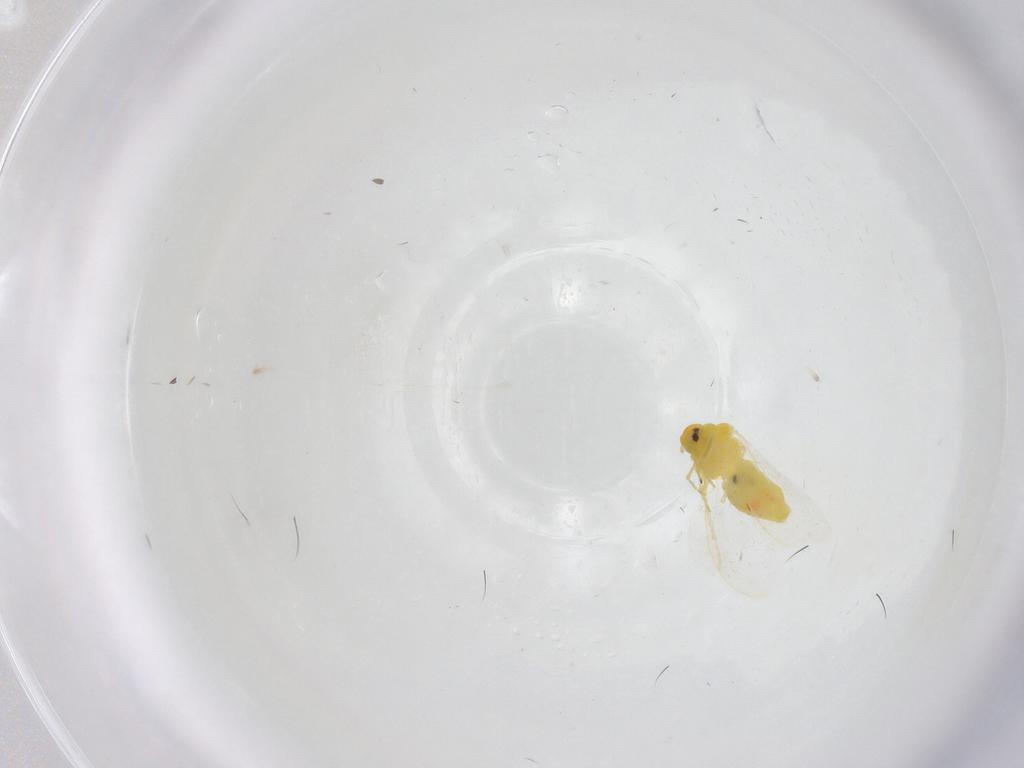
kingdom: Animalia
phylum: Arthropoda
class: Insecta
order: Hemiptera
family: Aleyrodidae
